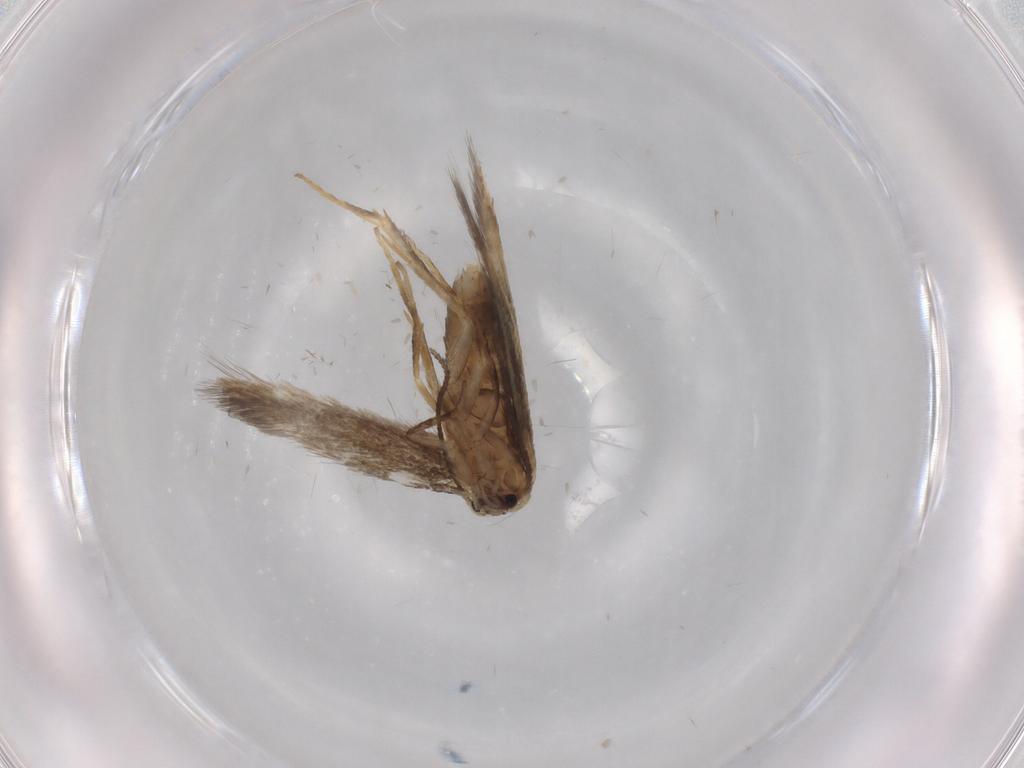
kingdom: Animalia
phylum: Arthropoda
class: Insecta
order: Lepidoptera
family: Nepticulidae
